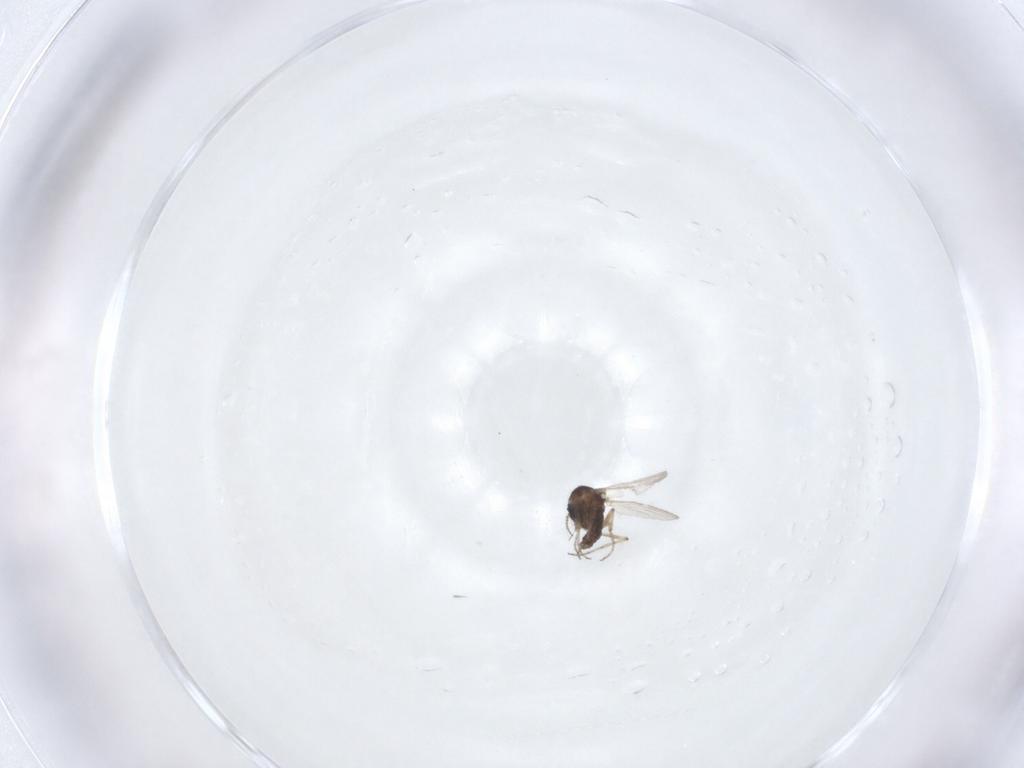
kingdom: Animalia
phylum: Arthropoda
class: Insecta
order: Diptera
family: Ceratopogonidae
